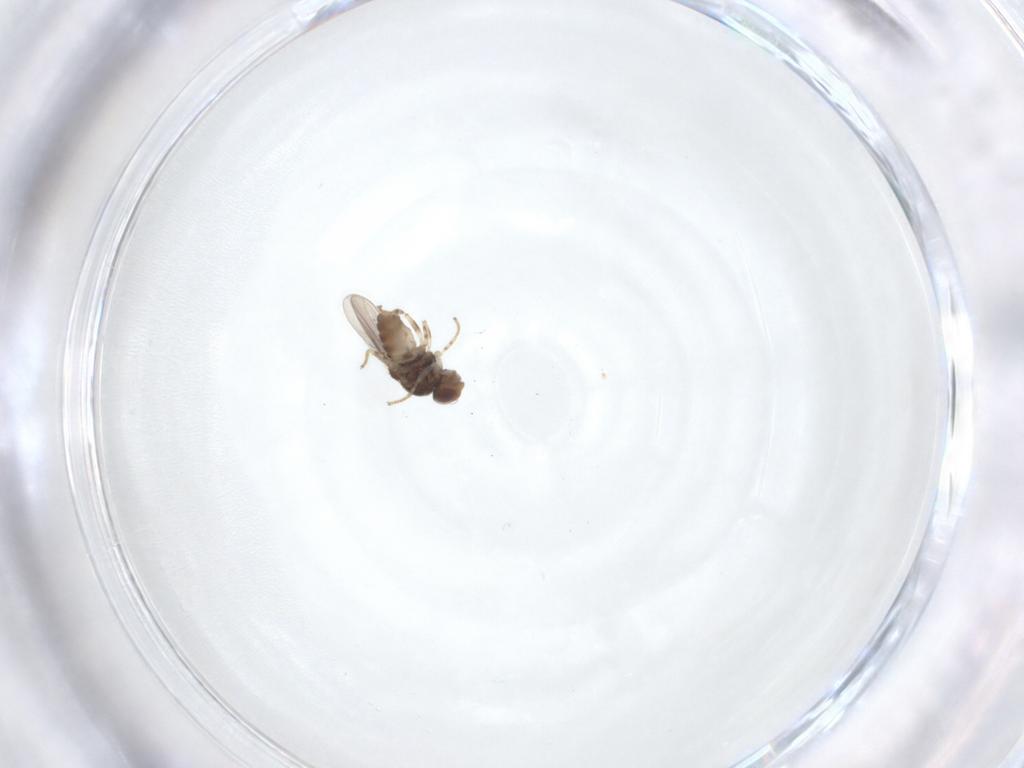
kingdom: Animalia
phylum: Arthropoda
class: Insecta
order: Diptera
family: Chloropidae
